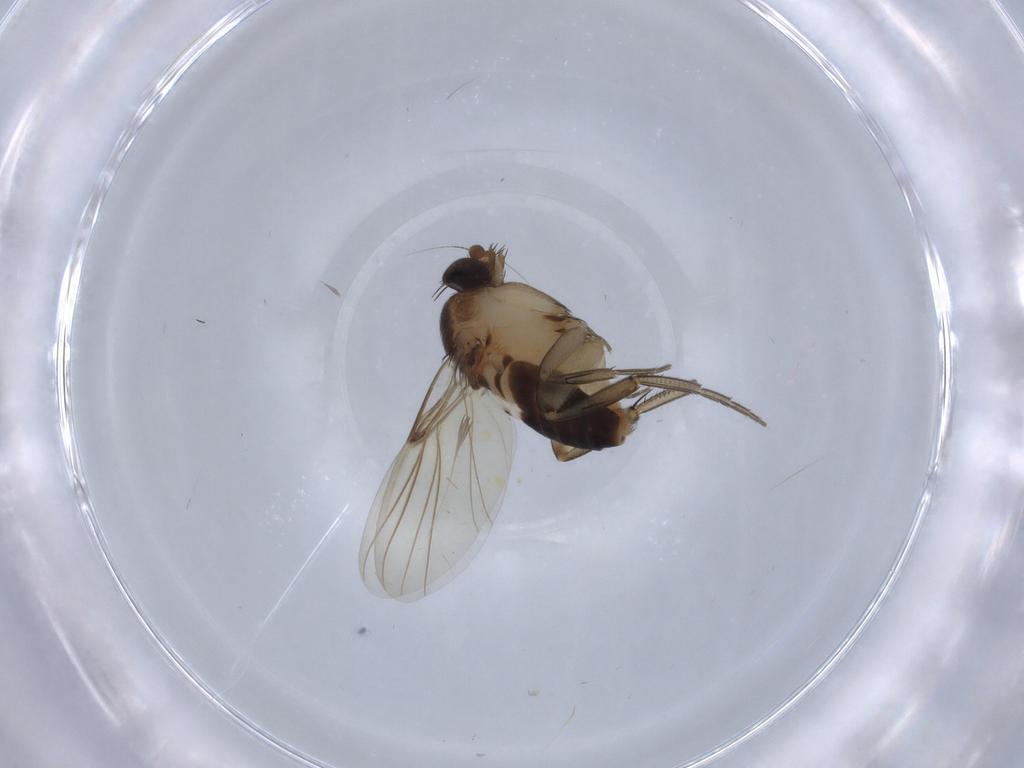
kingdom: Animalia
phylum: Arthropoda
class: Insecta
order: Diptera
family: Phoridae
